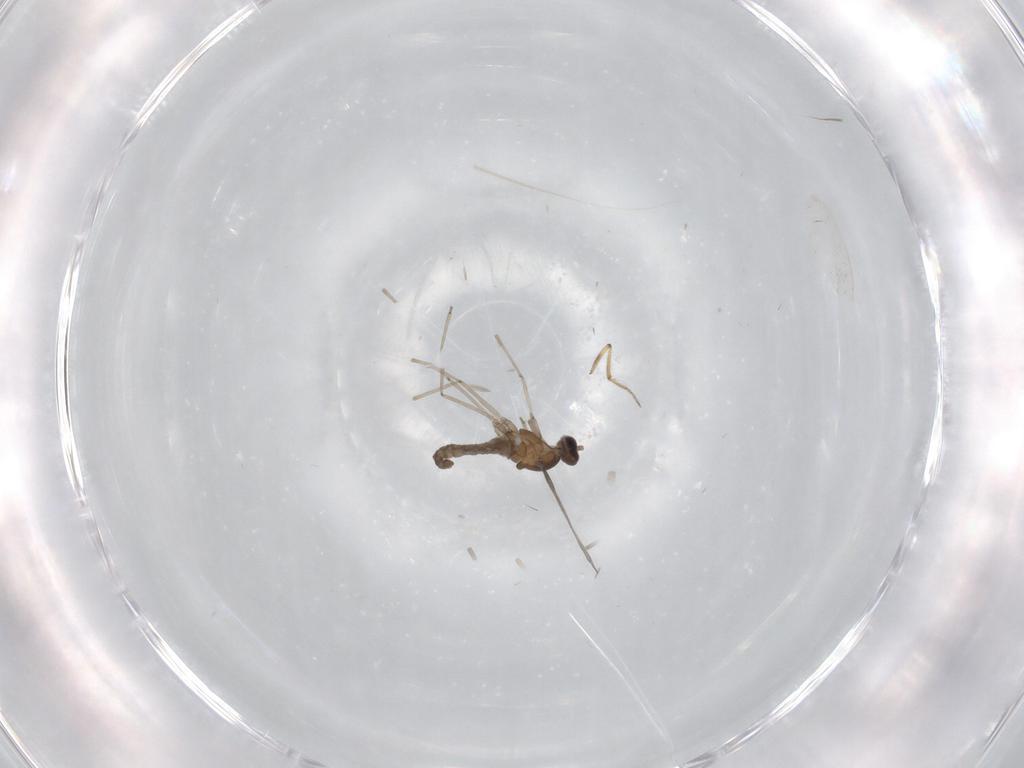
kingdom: Animalia
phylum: Arthropoda
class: Insecta
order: Diptera
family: Cecidomyiidae
